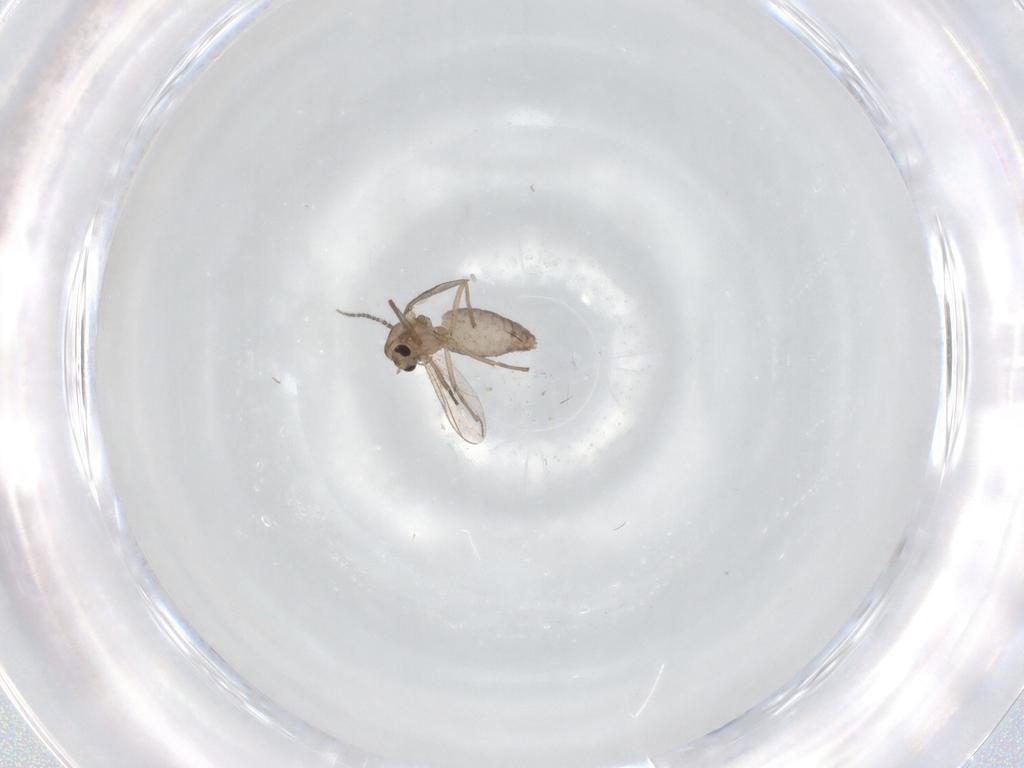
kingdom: Animalia
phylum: Arthropoda
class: Insecta
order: Diptera
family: Chironomidae
